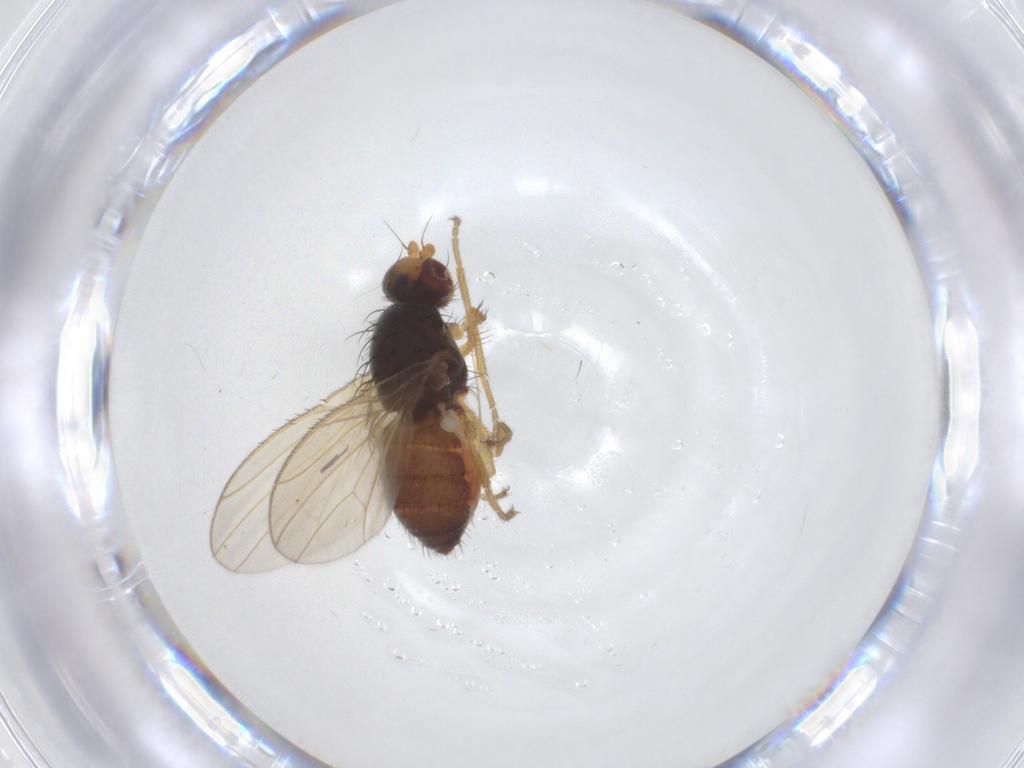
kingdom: Animalia
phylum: Arthropoda
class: Insecta
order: Diptera
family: Heleomyzidae
